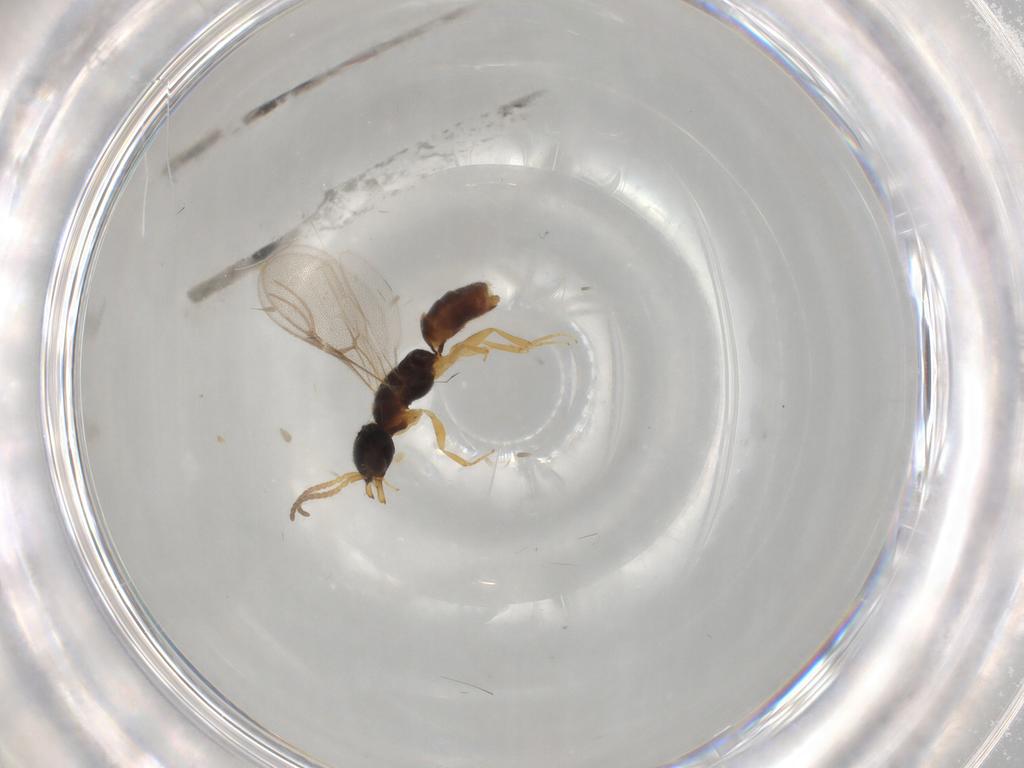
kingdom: Animalia
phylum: Arthropoda
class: Insecta
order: Hymenoptera
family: Bethylidae
